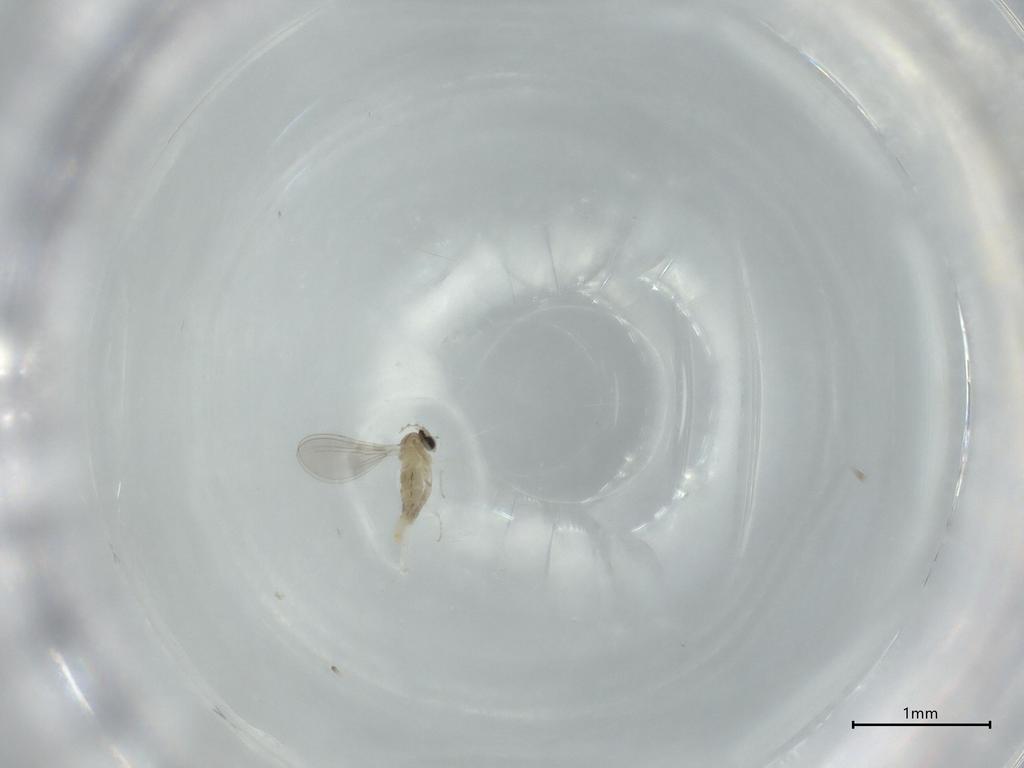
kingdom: Animalia
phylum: Arthropoda
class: Insecta
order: Diptera
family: Cecidomyiidae
